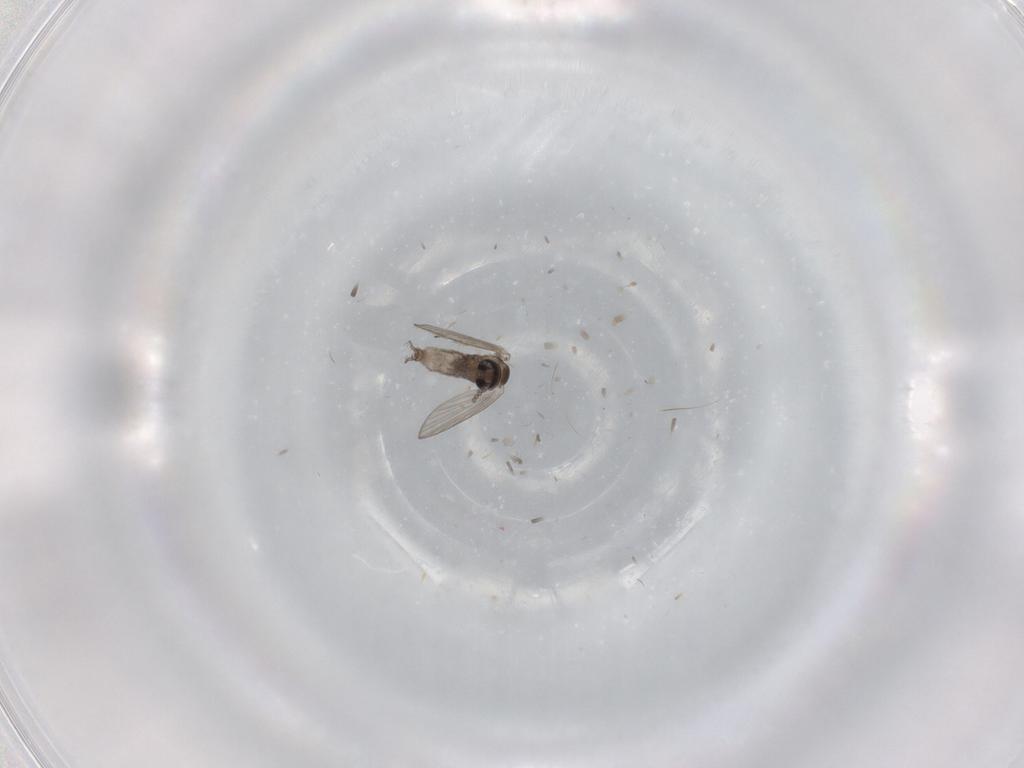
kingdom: Animalia
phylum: Arthropoda
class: Insecta
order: Diptera
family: Psychodidae
